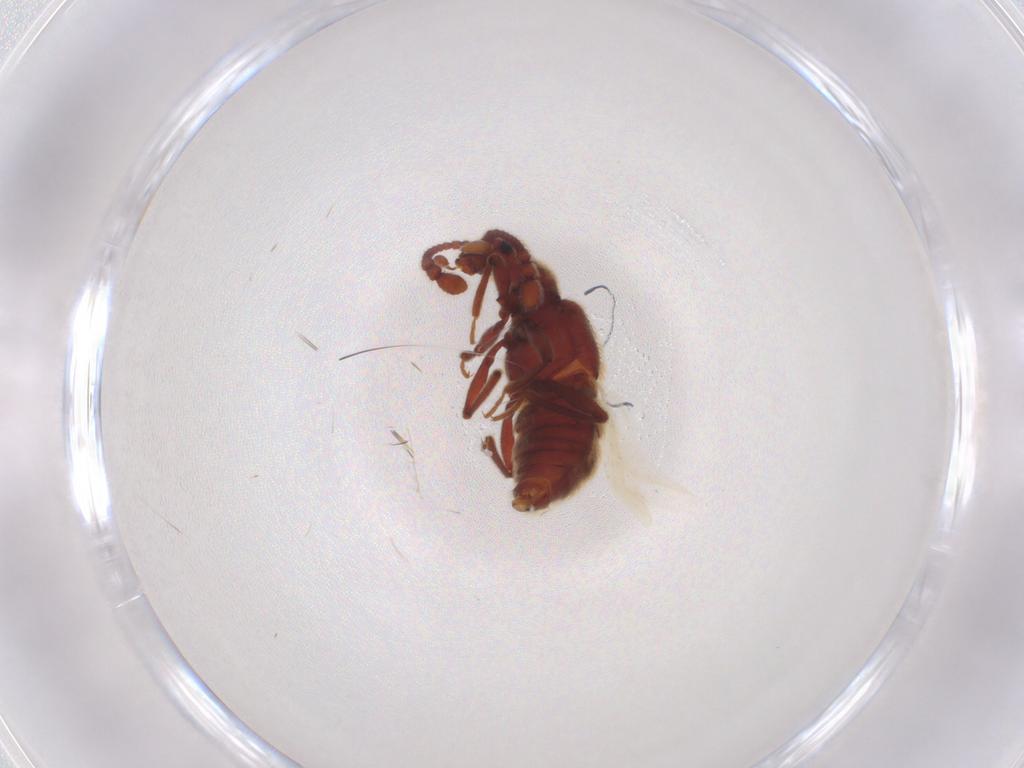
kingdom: Animalia
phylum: Arthropoda
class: Insecta
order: Coleoptera
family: Staphylinidae
